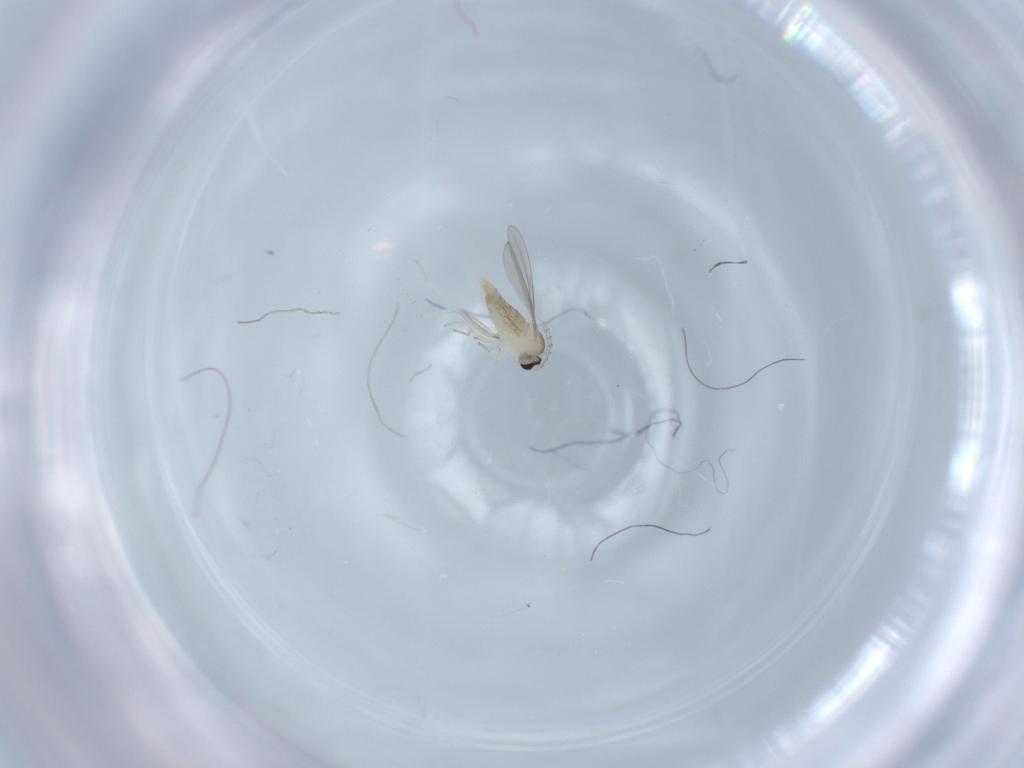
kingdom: Animalia
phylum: Arthropoda
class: Insecta
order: Diptera
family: Cecidomyiidae
